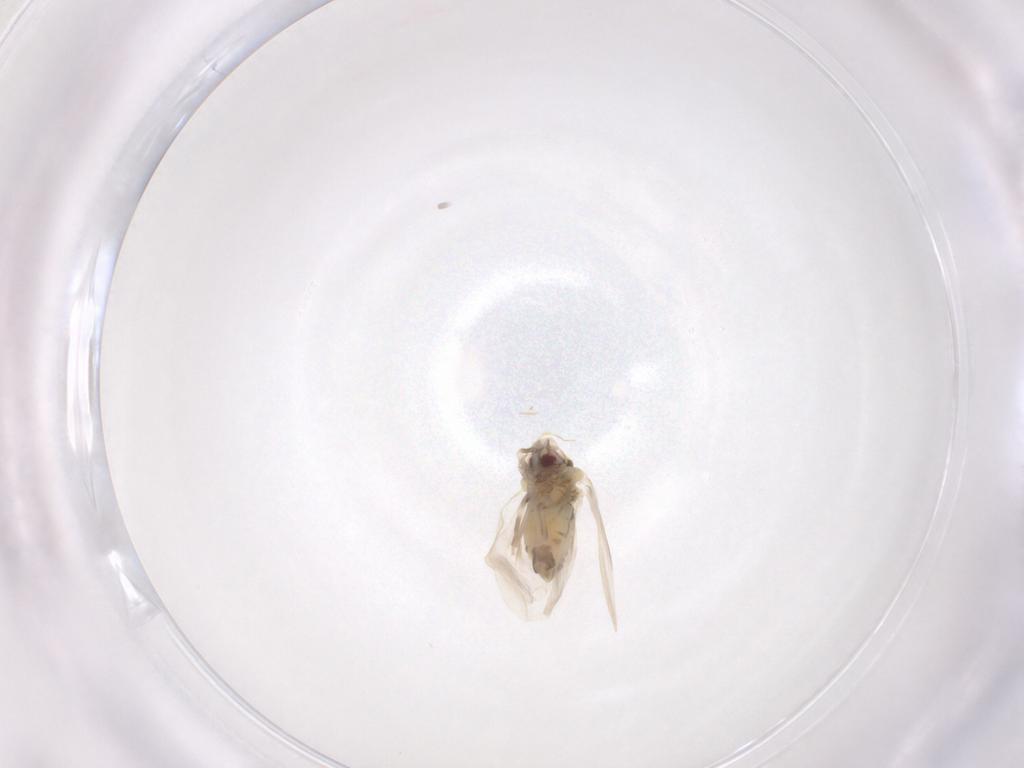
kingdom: Animalia
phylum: Arthropoda
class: Insecta
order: Hemiptera
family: Aleyrodidae
